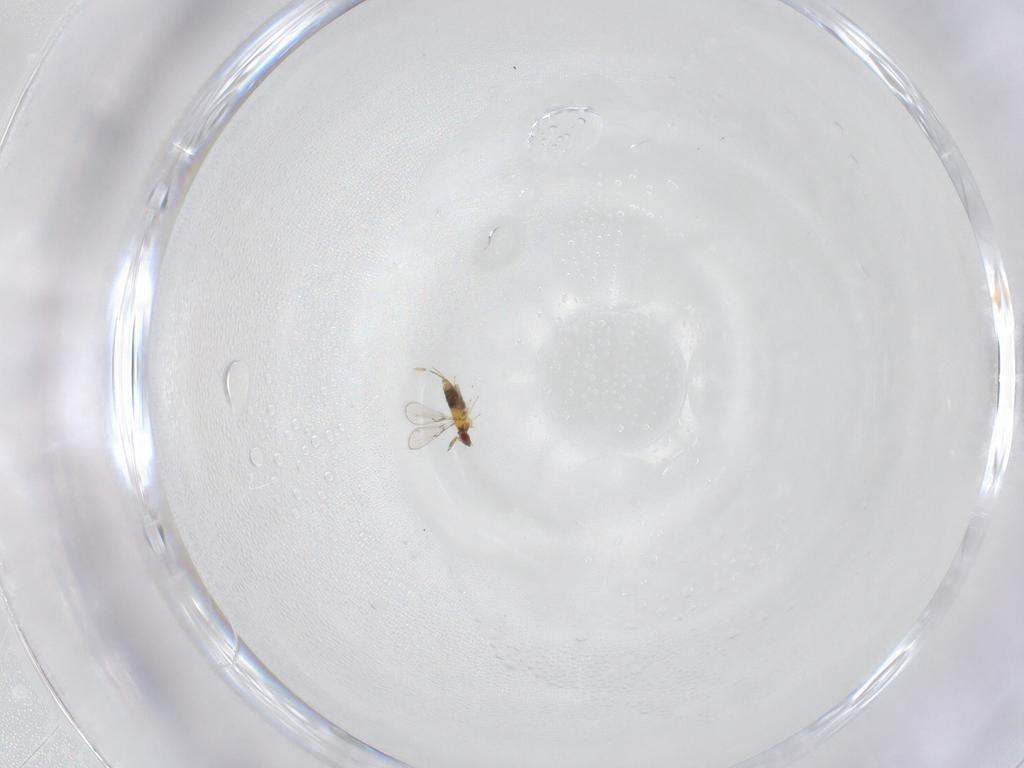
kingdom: Animalia
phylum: Arthropoda
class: Insecta
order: Hymenoptera
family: Trichogrammatidae
